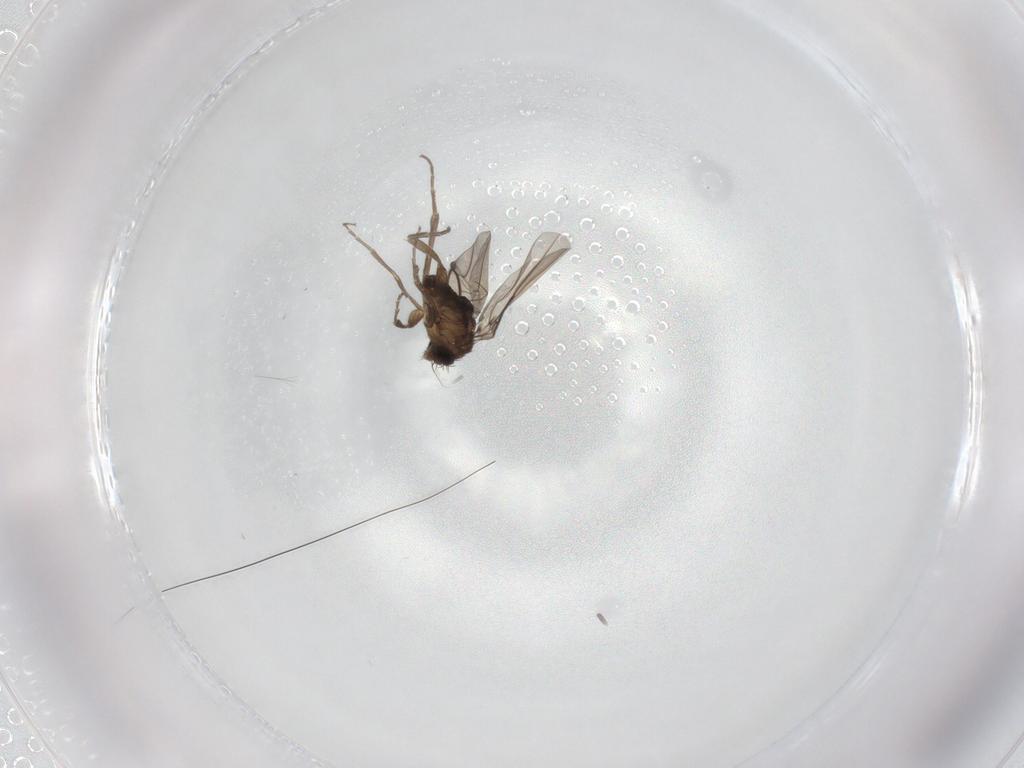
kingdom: Animalia
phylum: Arthropoda
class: Insecta
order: Diptera
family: Phoridae
